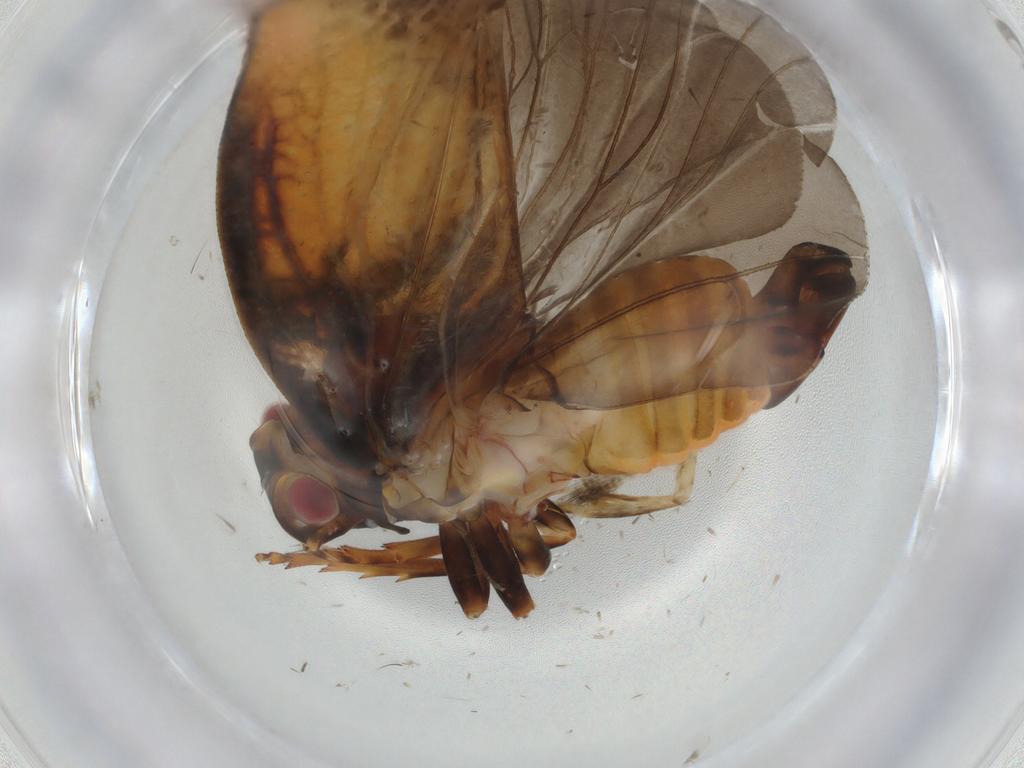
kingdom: Animalia
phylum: Arthropoda
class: Insecta
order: Hemiptera
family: Flatidae
